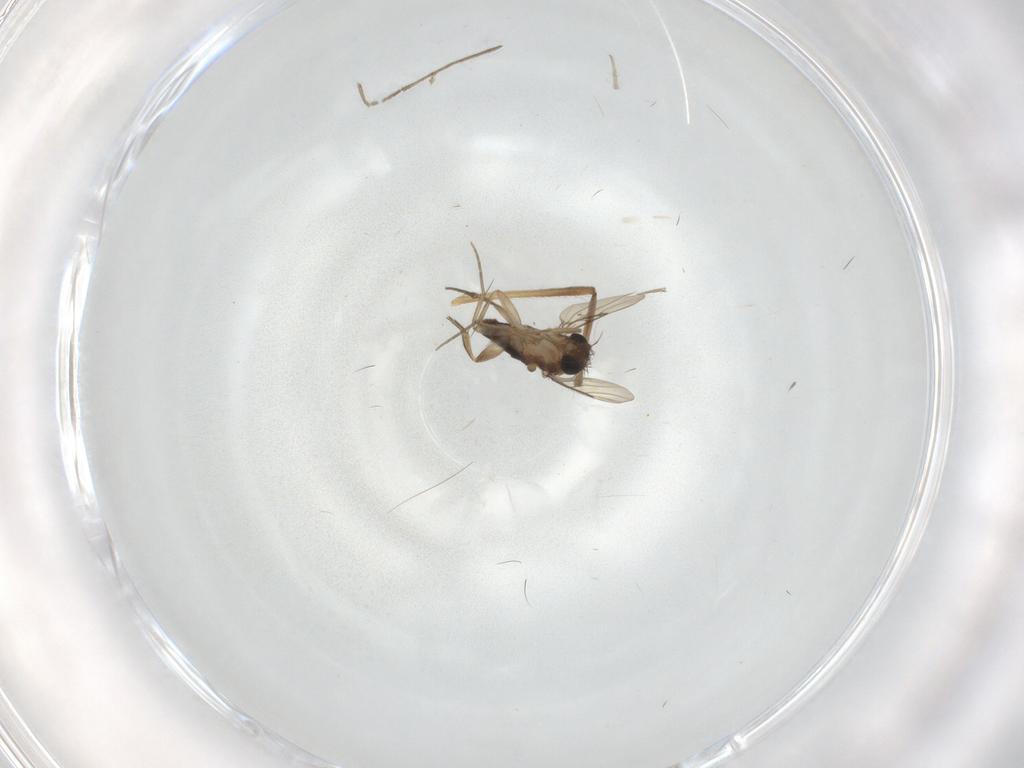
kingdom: Animalia
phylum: Arthropoda
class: Insecta
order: Diptera
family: Phoridae
